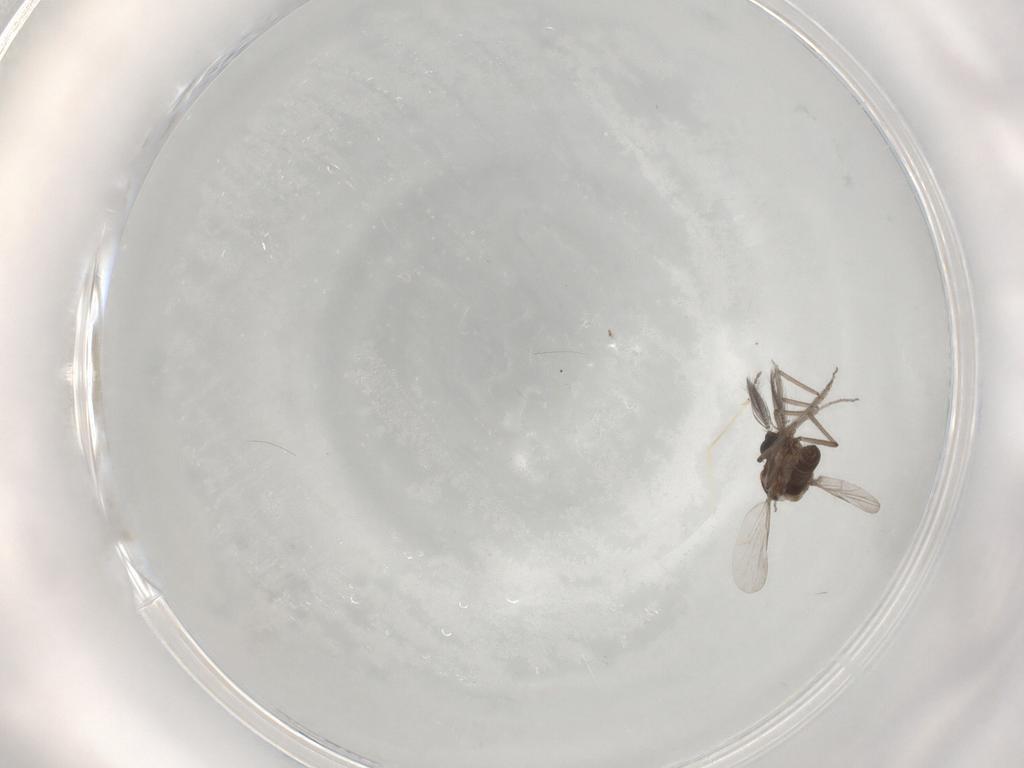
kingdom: Animalia
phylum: Arthropoda
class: Insecta
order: Diptera
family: Ceratopogonidae
